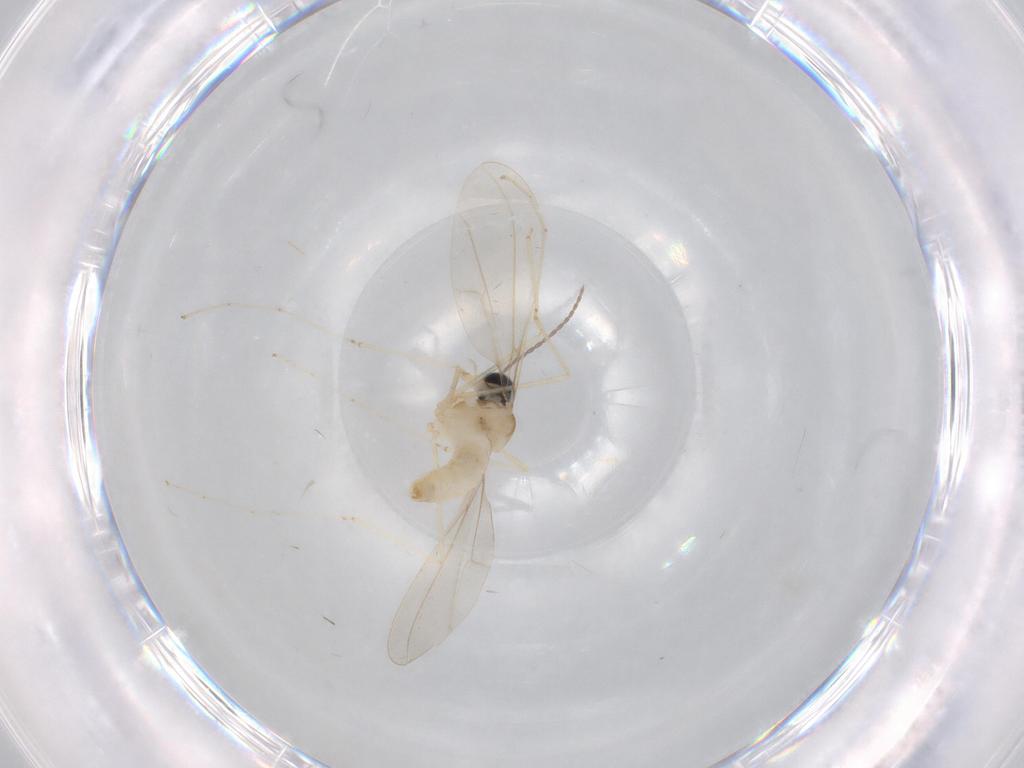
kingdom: Animalia
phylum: Arthropoda
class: Insecta
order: Diptera
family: Cecidomyiidae
